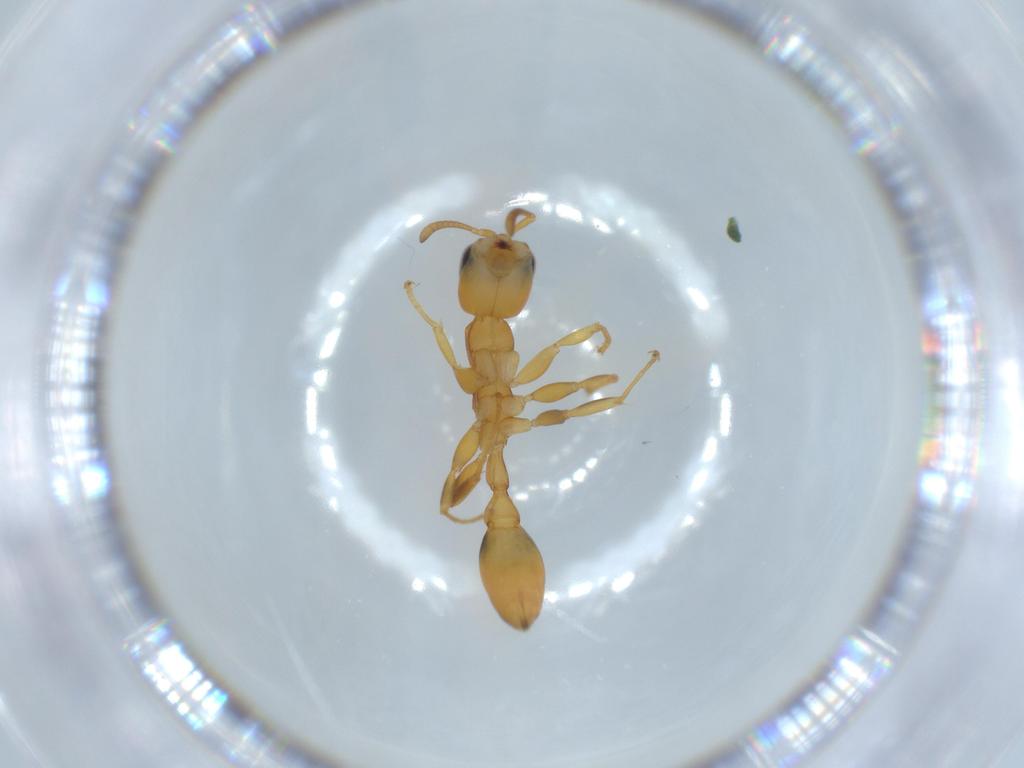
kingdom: Animalia
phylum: Arthropoda
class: Insecta
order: Hymenoptera
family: Formicidae
